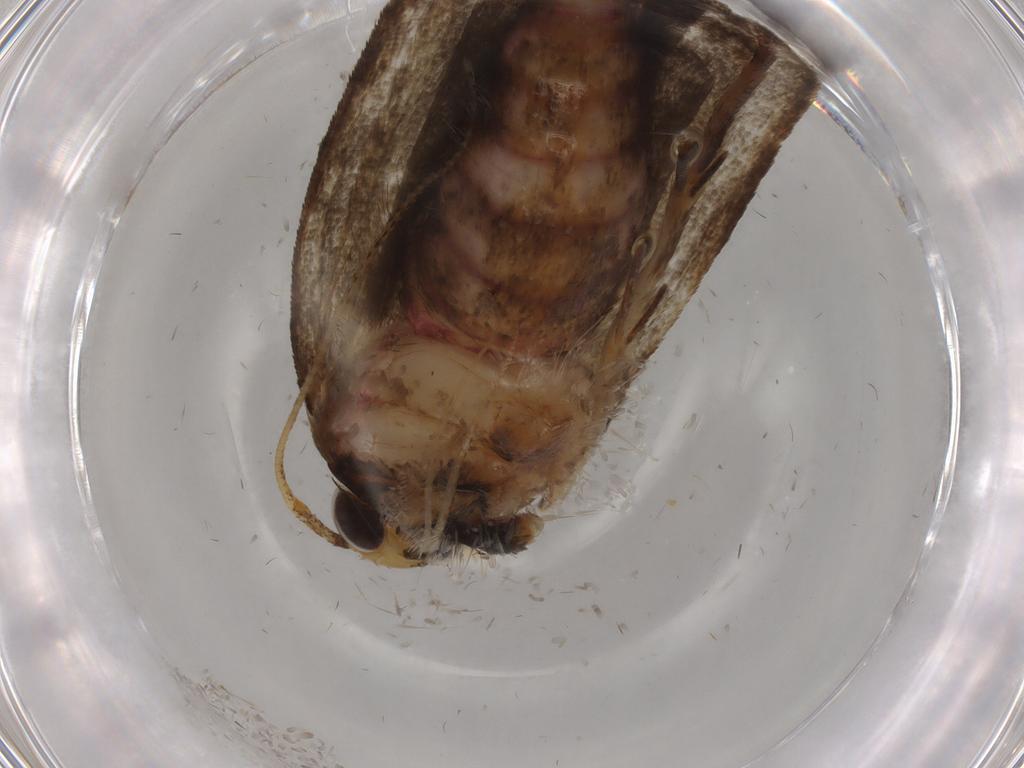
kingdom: Animalia
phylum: Arthropoda
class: Insecta
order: Lepidoptera
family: Autostichidae
